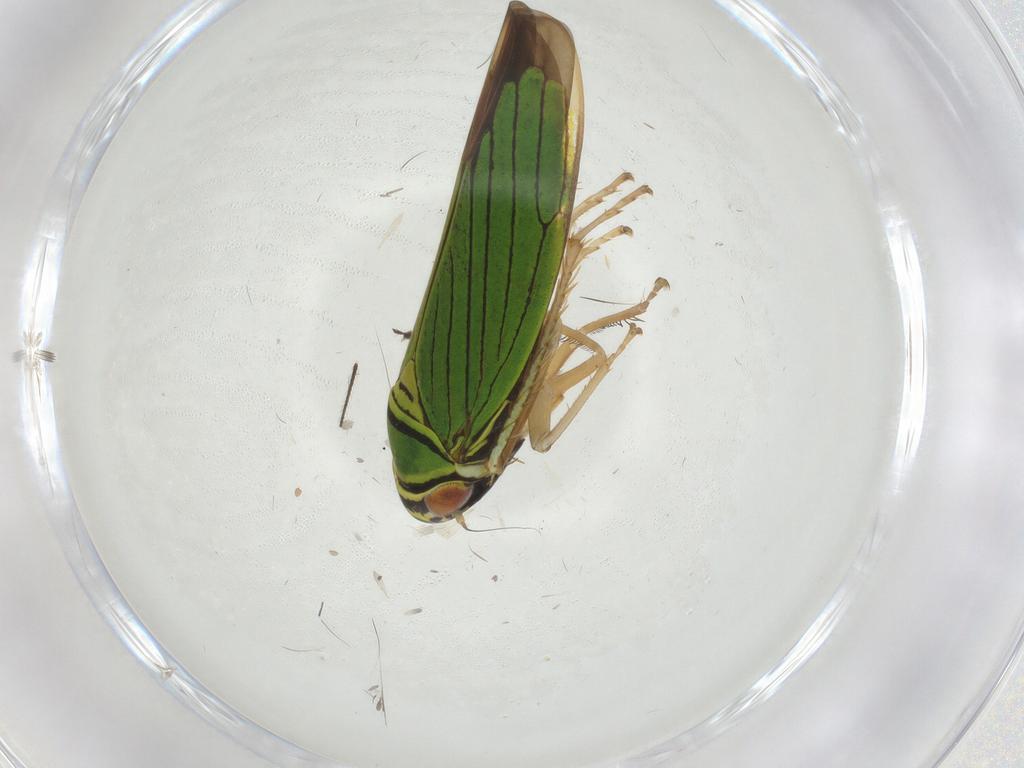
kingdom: Animalia
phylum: Arthropoda
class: Insecta
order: Hemiptera
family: Cicadellidae
